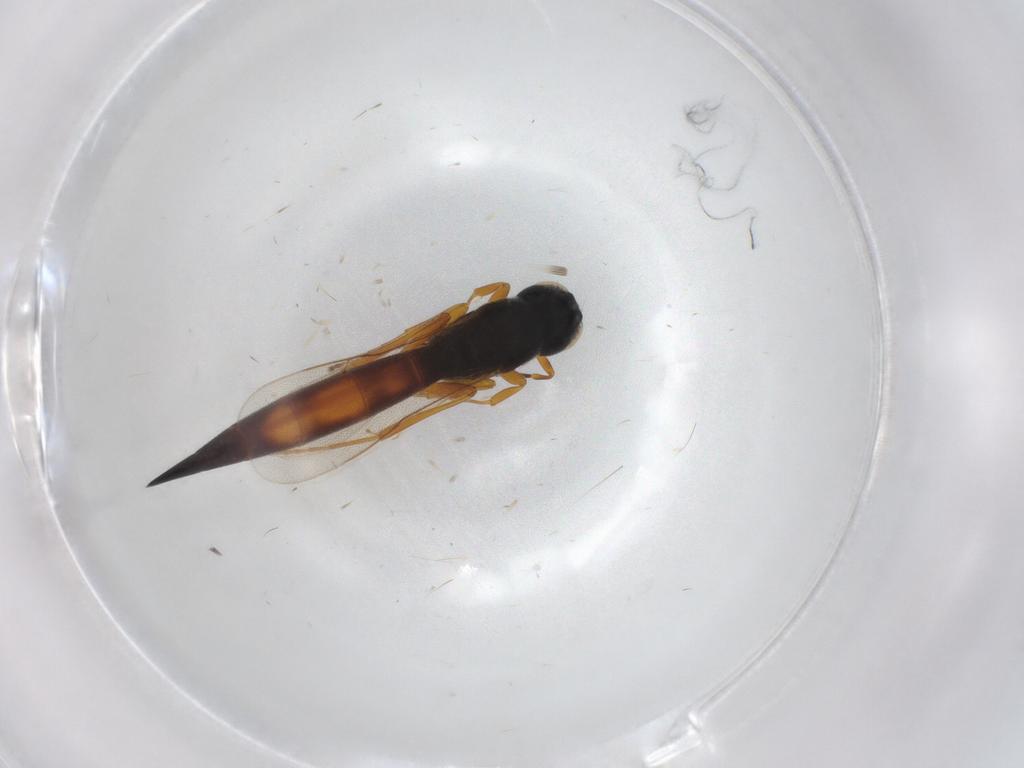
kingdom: Animalia
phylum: Arthropoda
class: Insecta
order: Hymenoptera
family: Scelionidae
